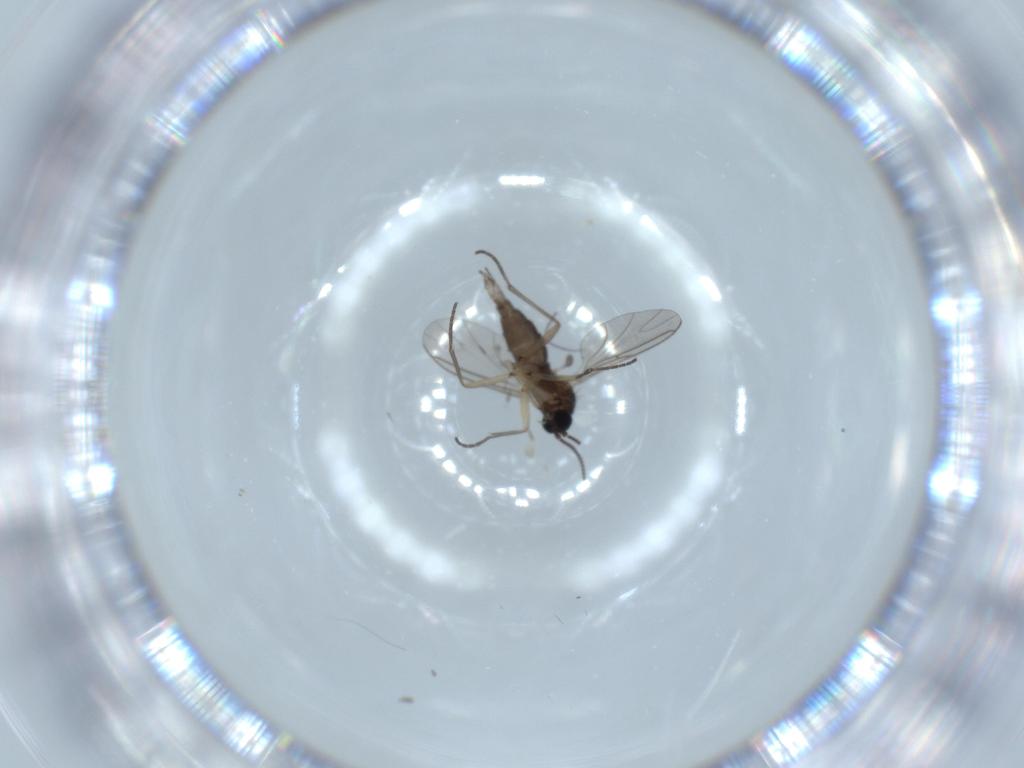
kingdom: Animalia
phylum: Arthropoda
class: Insecta
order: Diptera
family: Sciaridae
